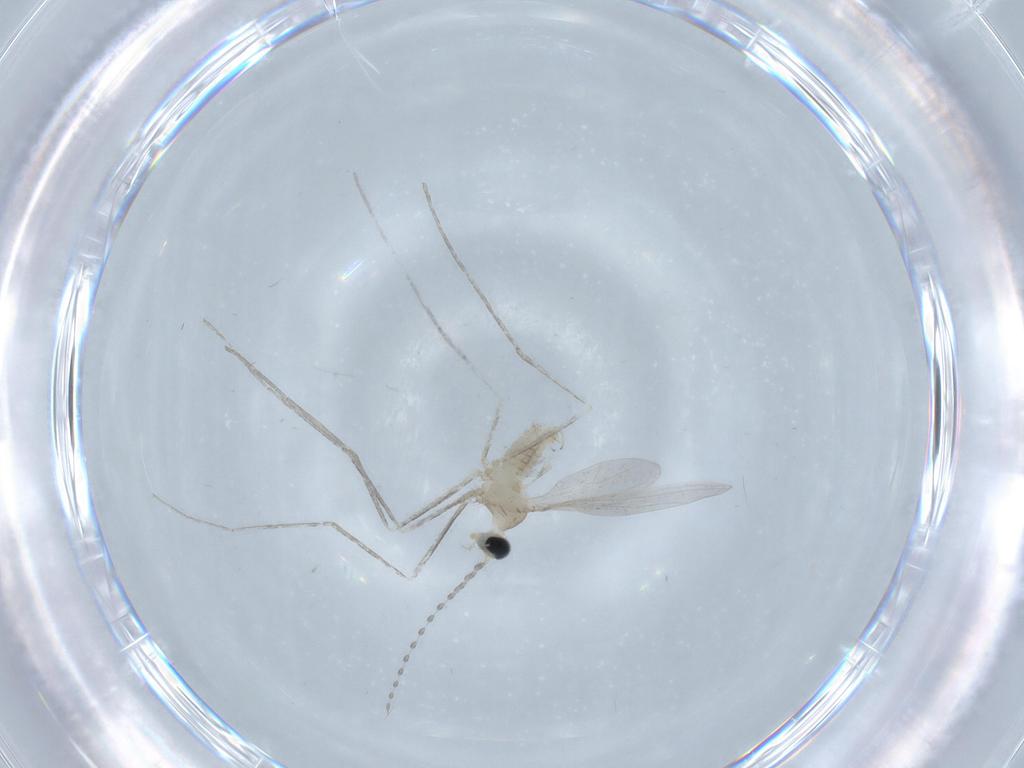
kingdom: Animalia
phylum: Arthropoda
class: Insecta
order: Diptera
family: Cecidomyiidae
